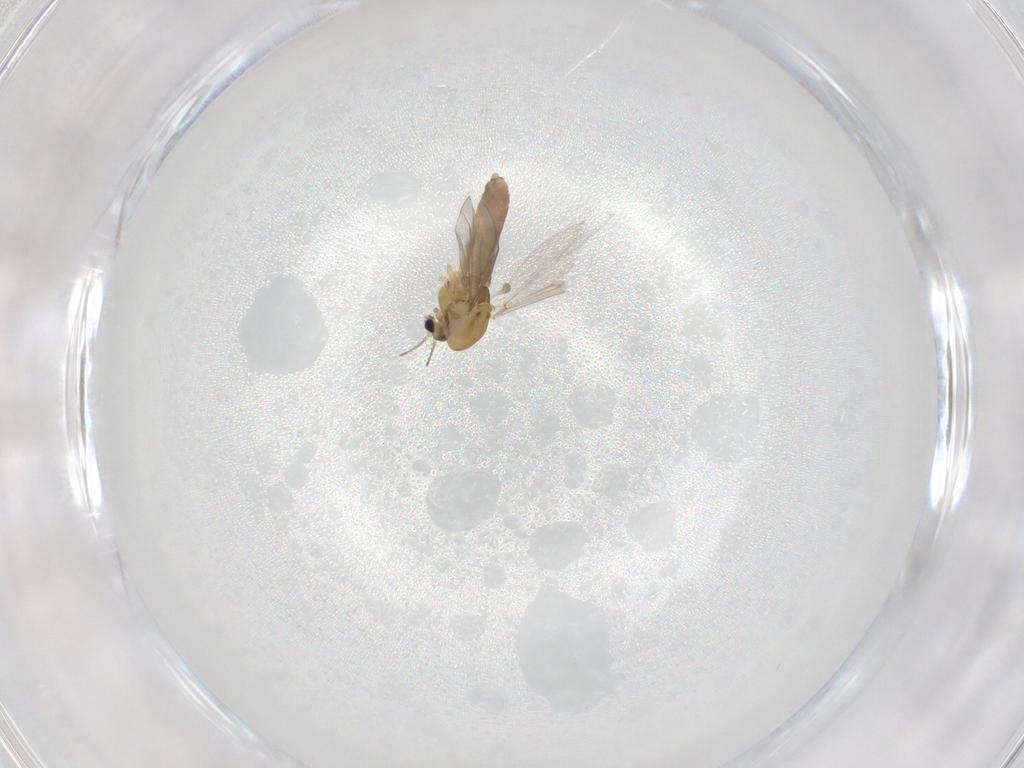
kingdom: Animalia
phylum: Arthropoda
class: Insecta
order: Diptera
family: Chironomidae
